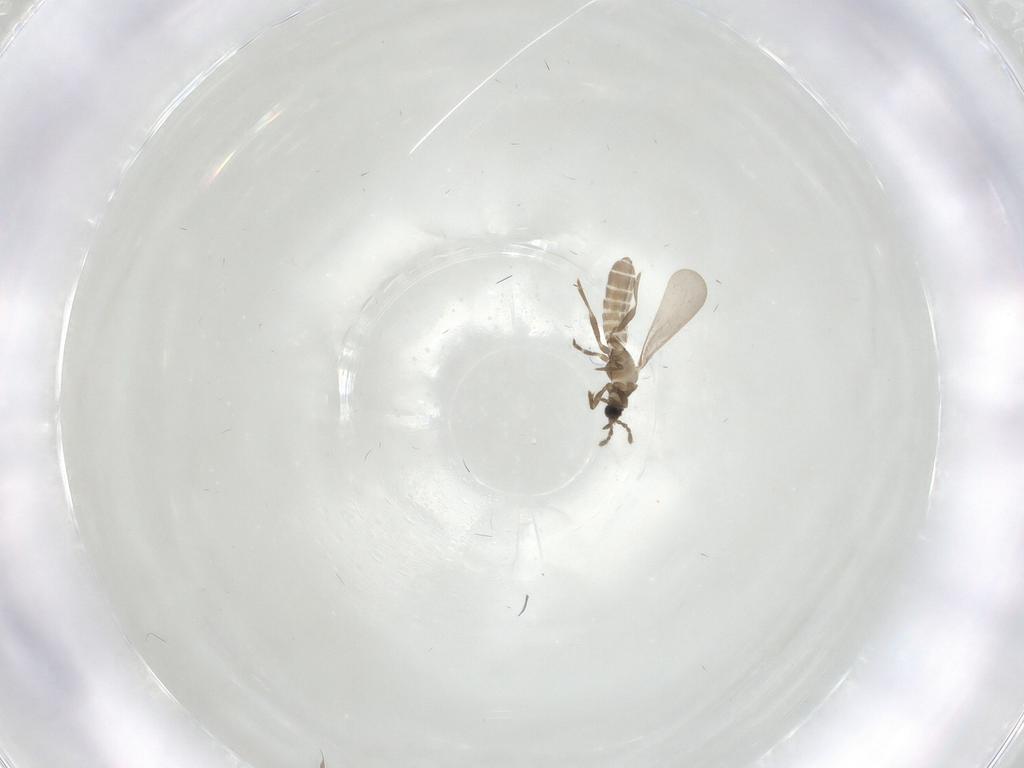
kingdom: Animalia
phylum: Arthropoda
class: Insecta
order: Hemiptera
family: Enicocephalidae
